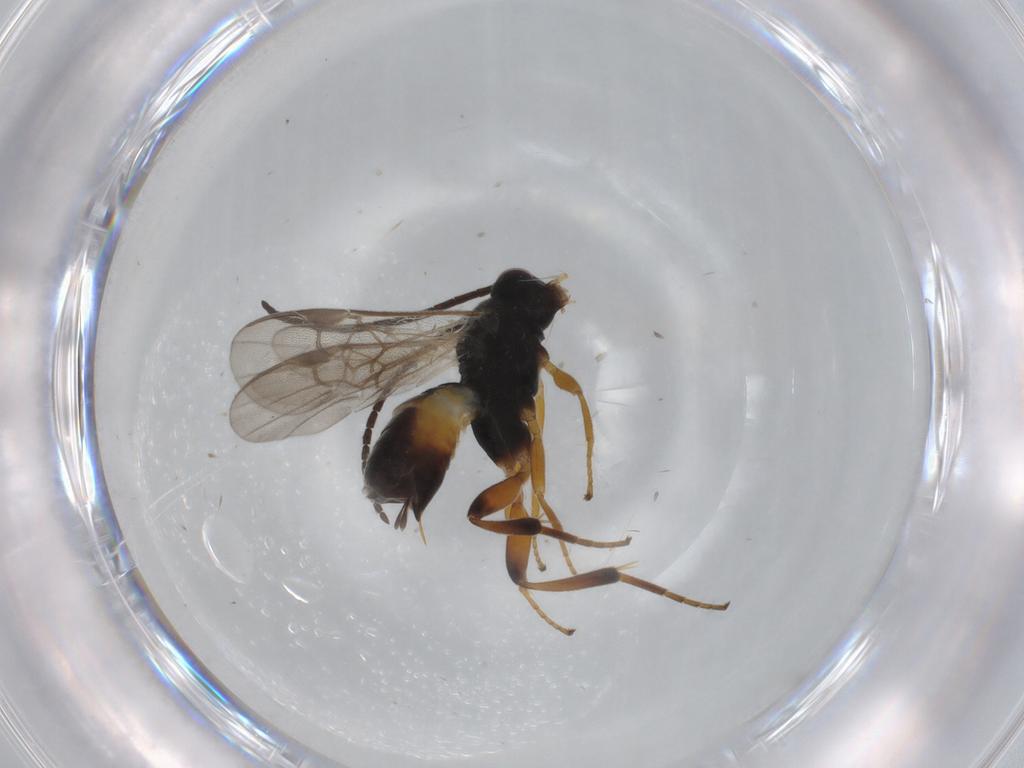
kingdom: Animalia
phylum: Arthropoda
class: Insecta
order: Hymenoptera
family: Braconidae
